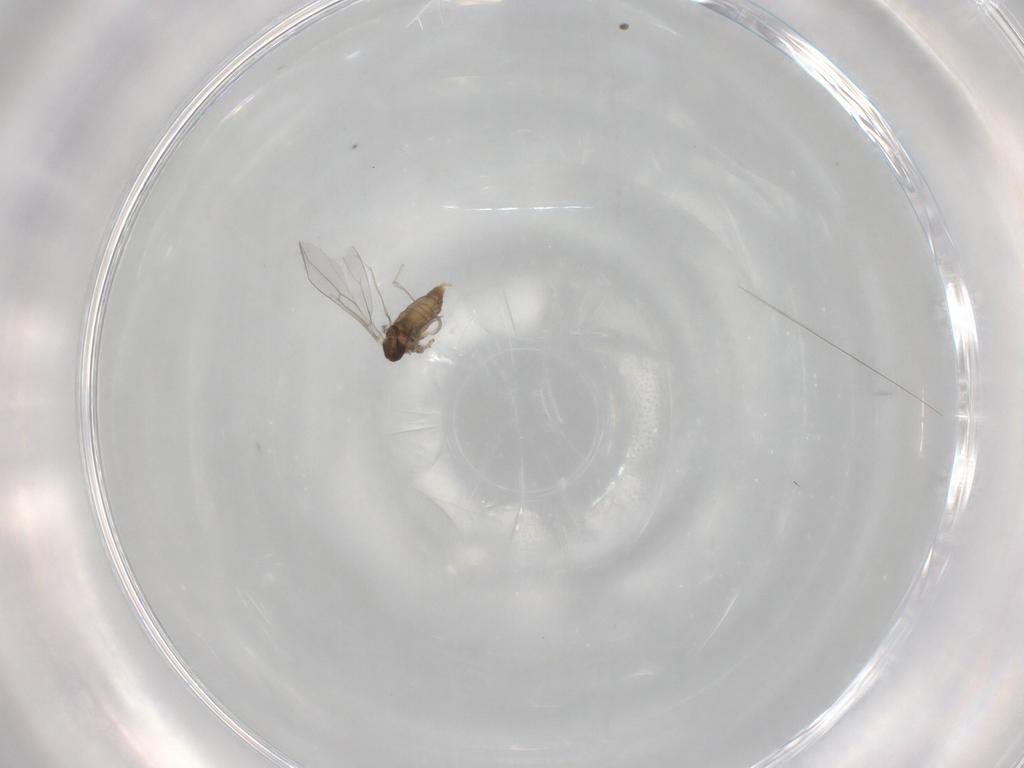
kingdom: Animalia
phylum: Arthropoda
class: Insecta
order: Diptera
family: Cecidomyiidae
